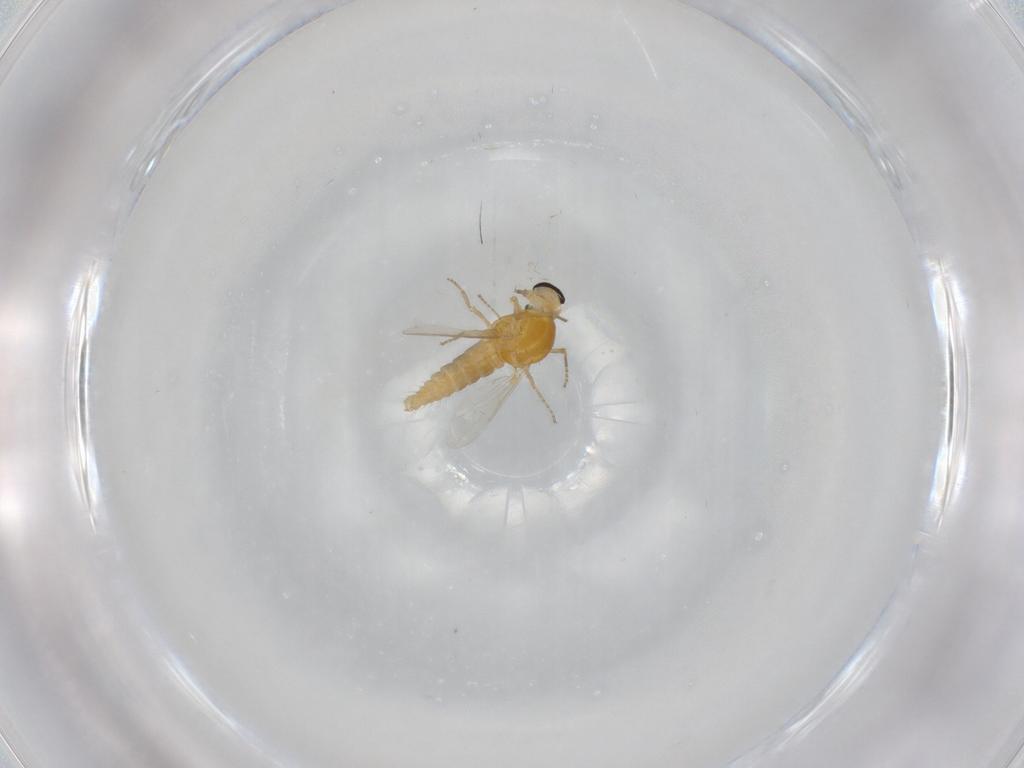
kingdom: Animalia
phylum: Arthropoda
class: Insecta
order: Diptera
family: Ceratopogonidae
